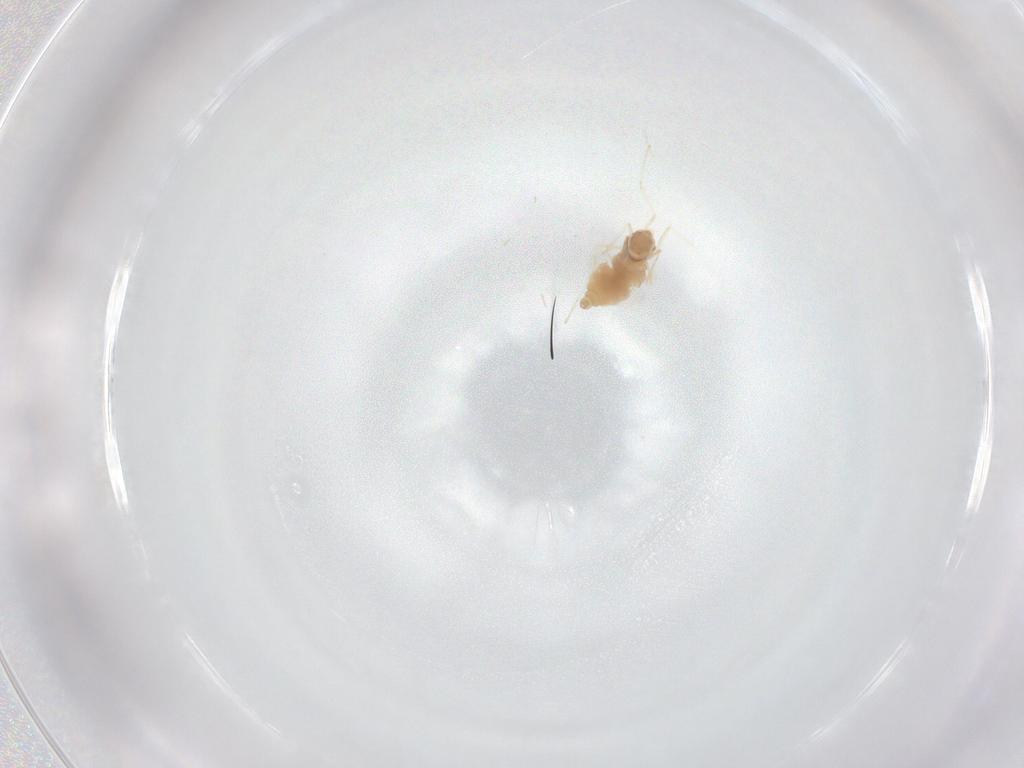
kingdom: Animalia
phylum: Arthropoda
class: Insecta
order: Diptera
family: Cecidomyiidae
